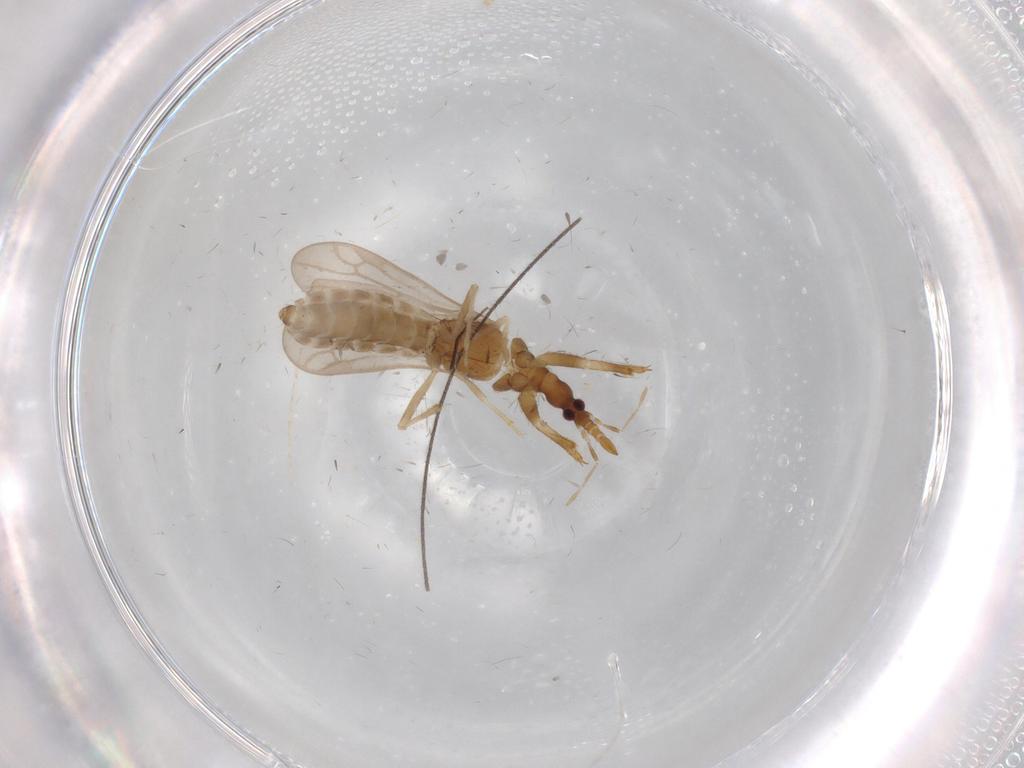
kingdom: Animalia
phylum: Arthropoda
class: Insecta
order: Hemiptera
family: Enicocephalidae
